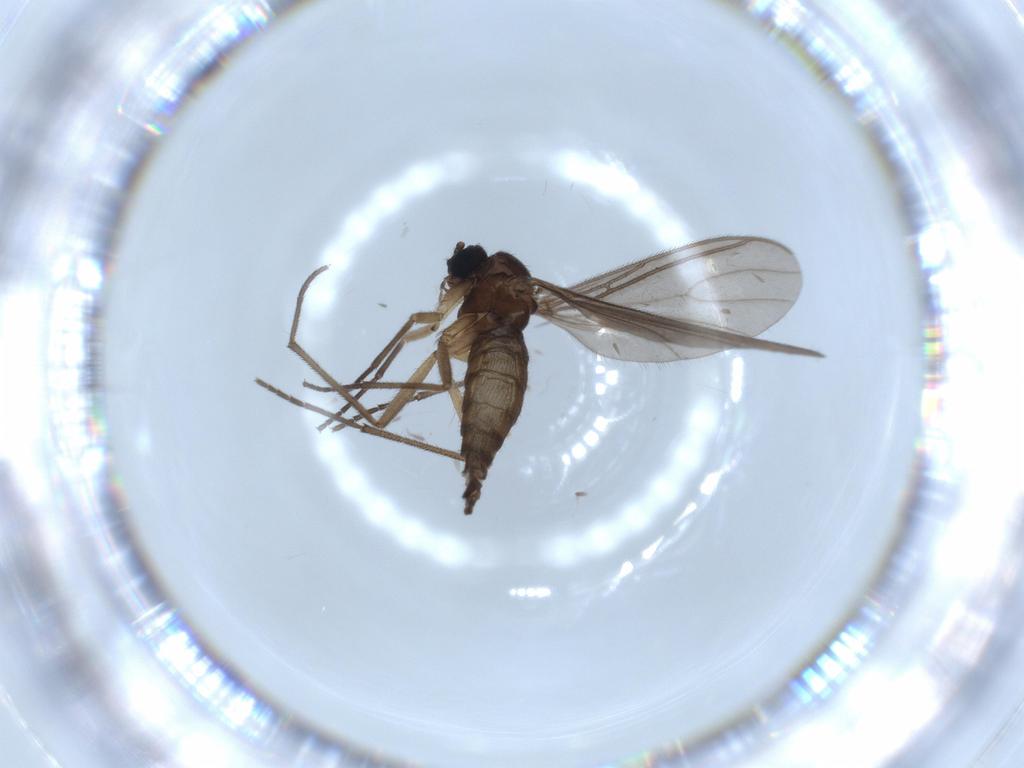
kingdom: Animalia
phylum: Arthropoda
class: Insecta
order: Diptera
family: Sciaridae
